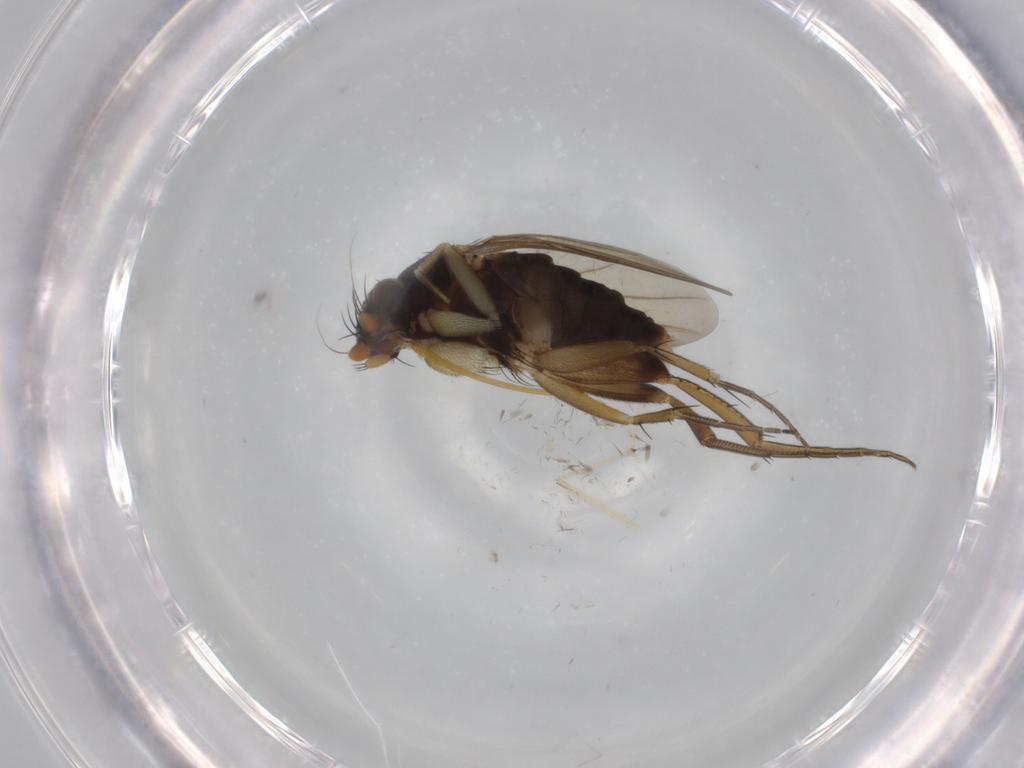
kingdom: Animalia
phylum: Arthropoda
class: Insecta
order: Diptera
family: Phoridae
